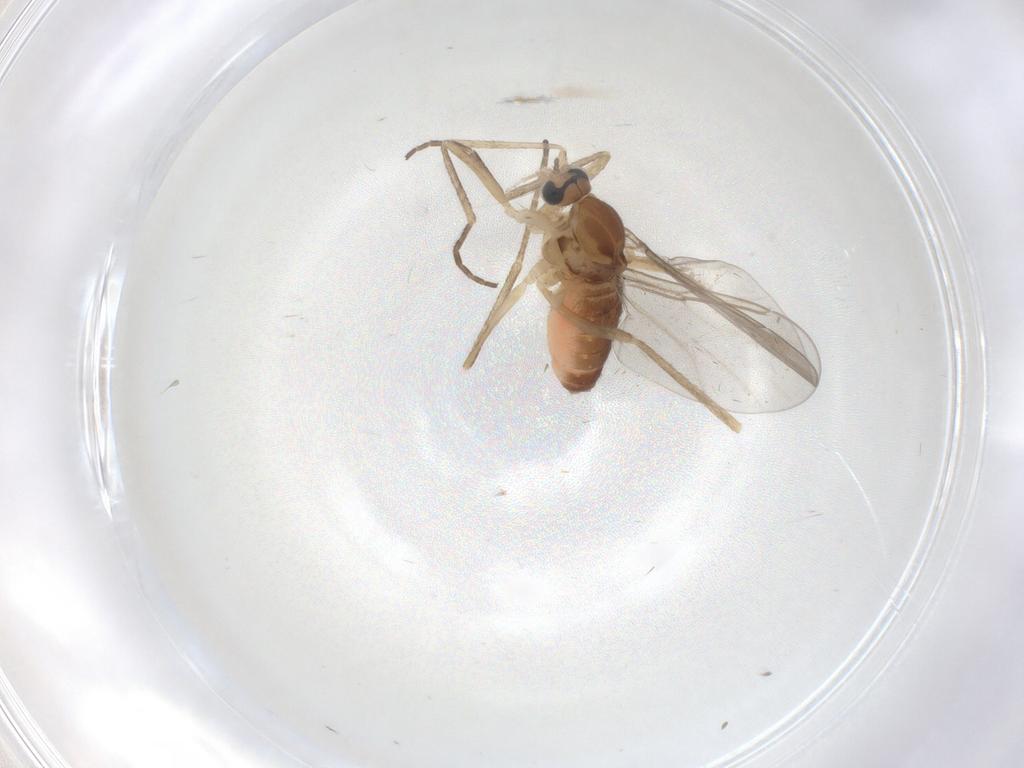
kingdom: Animalia
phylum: Arthropoda
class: Insecta
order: Diptera
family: Cecidomyiidae
